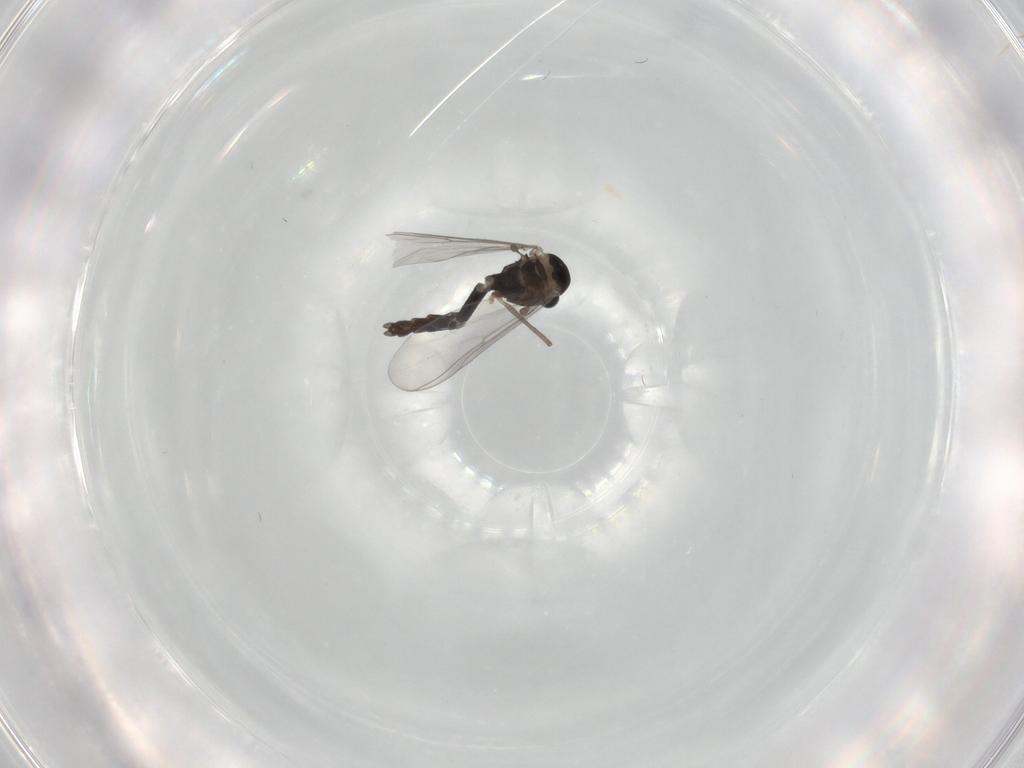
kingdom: Animalia
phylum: Arthropoda
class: Insecta
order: Diptera
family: Chironomidae
